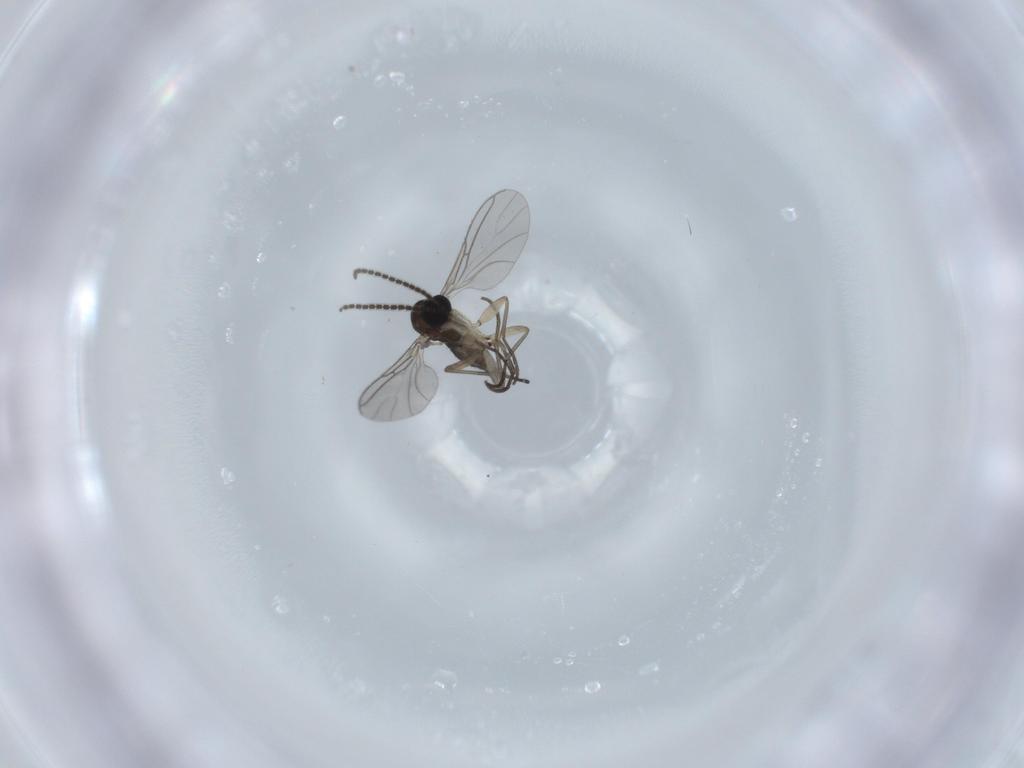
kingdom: Animalia
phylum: Arthropoda
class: Insecta
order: Diptera
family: Sciaridae
